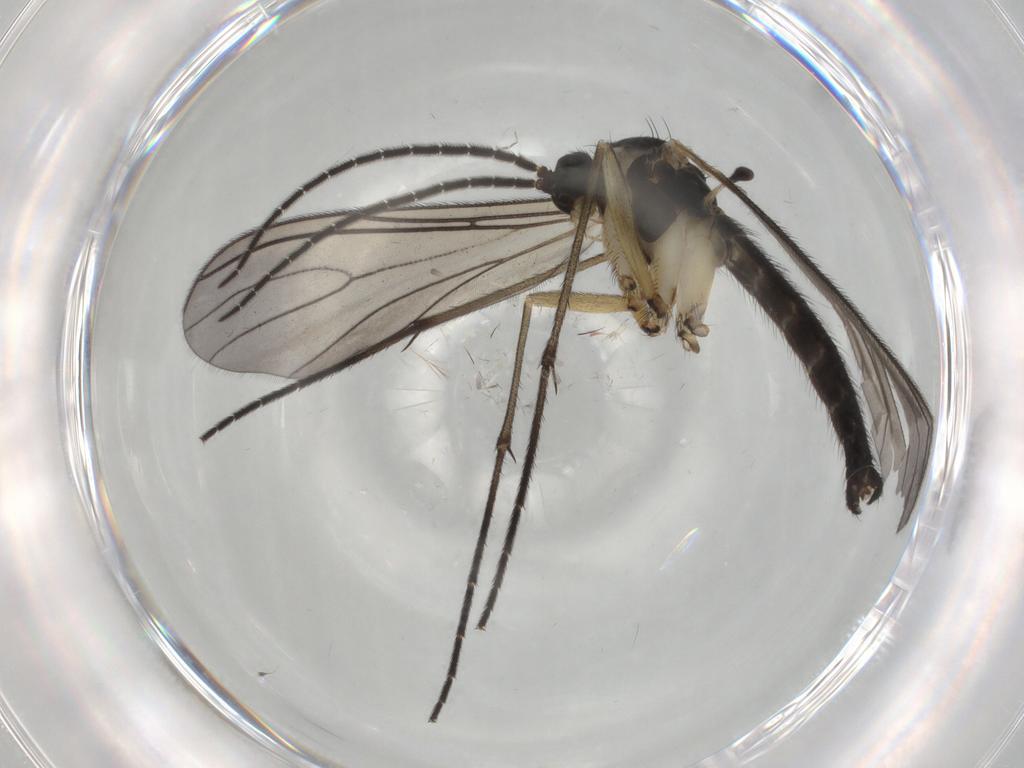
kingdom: Animalia
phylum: Arthropoda
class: Insecta
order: Diptera
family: Sciaridae
